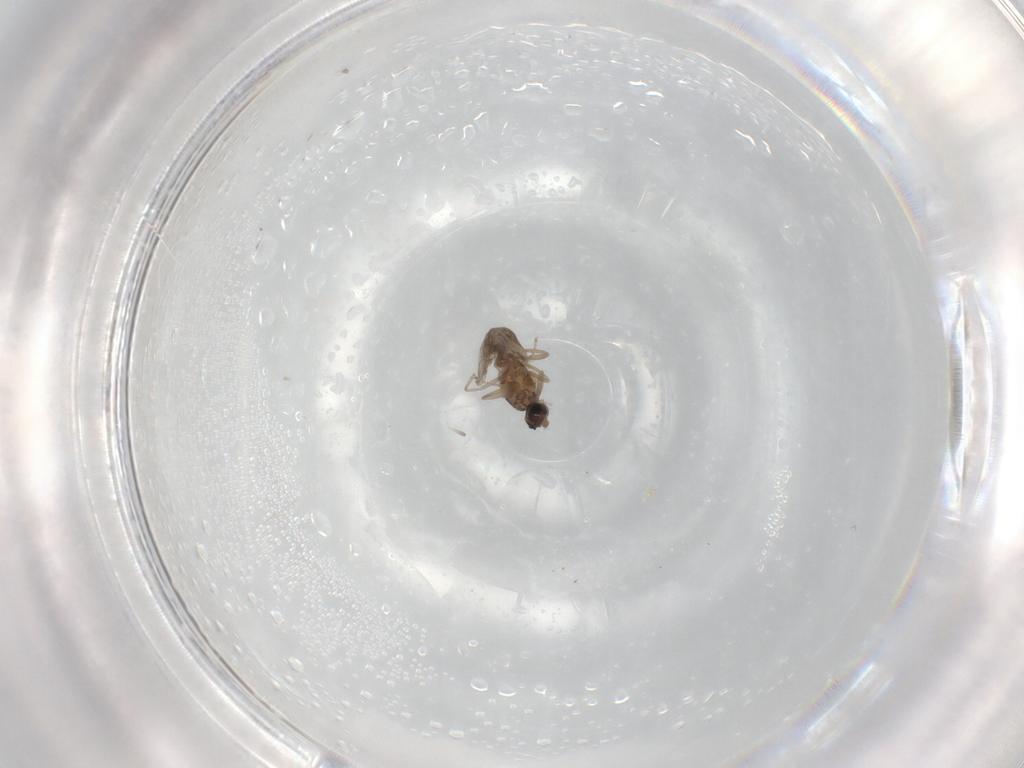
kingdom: Animalia
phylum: Arthropoda
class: Insecta
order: Diptera
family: Cecidomyiidae
